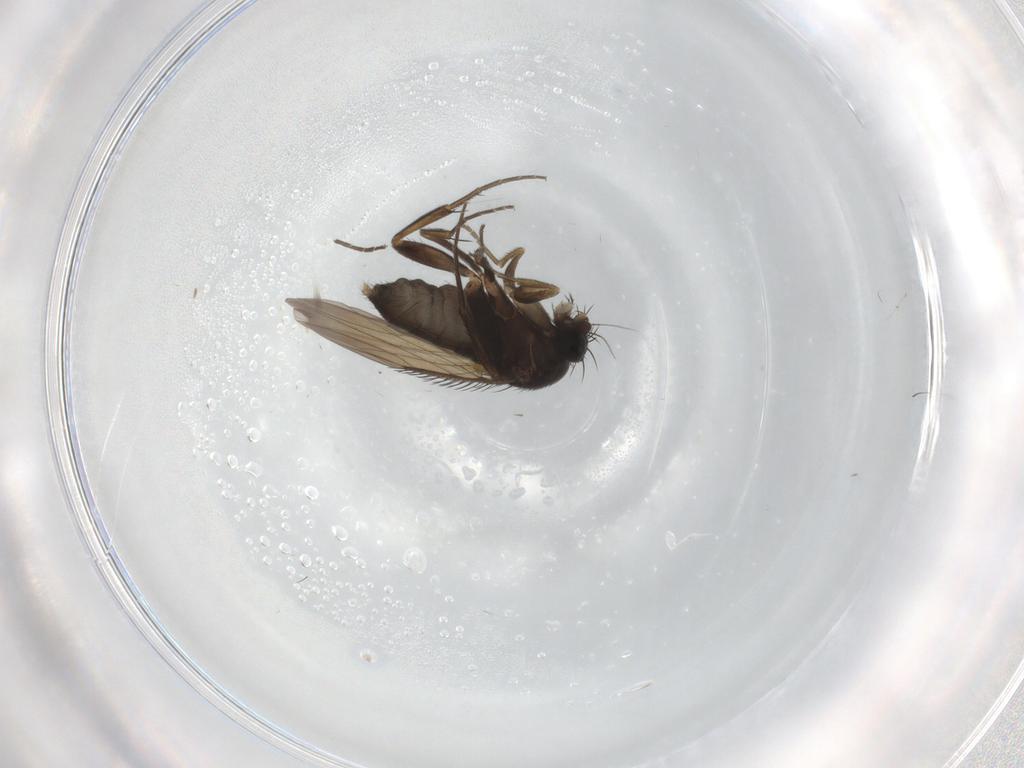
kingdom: Animalia
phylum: Arthropoda
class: Insecta
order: Diptera
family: Phoridae
